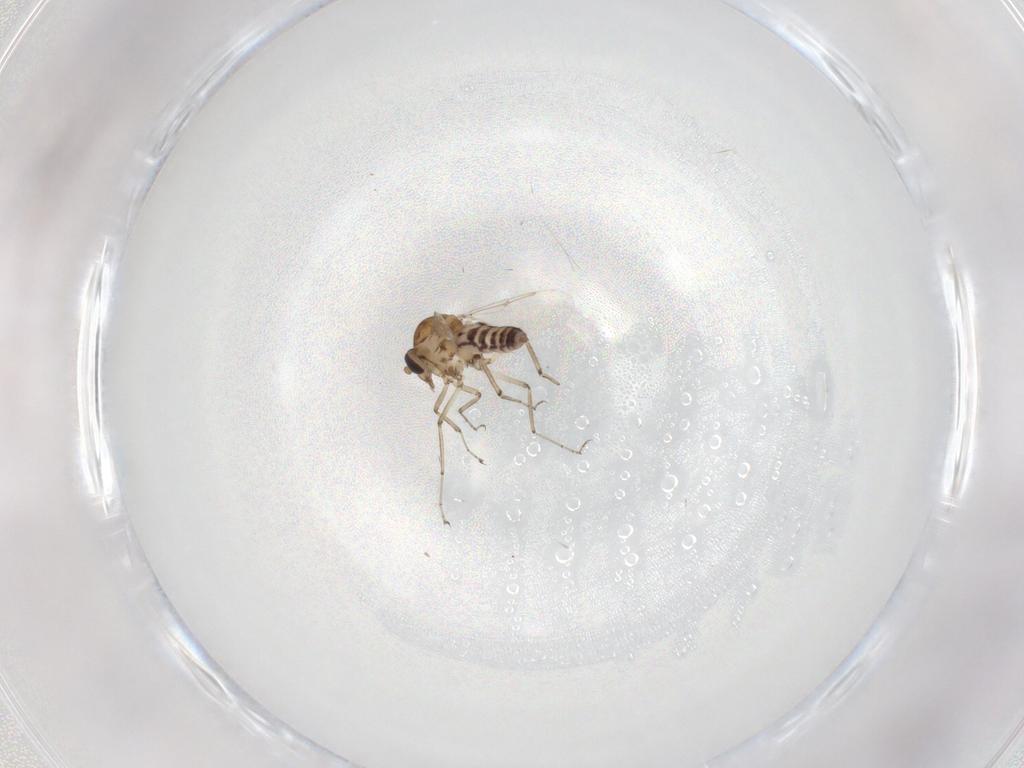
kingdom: Animalia
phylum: Arthropoda
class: Insecta
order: Diptera
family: Ceratopogonidae
